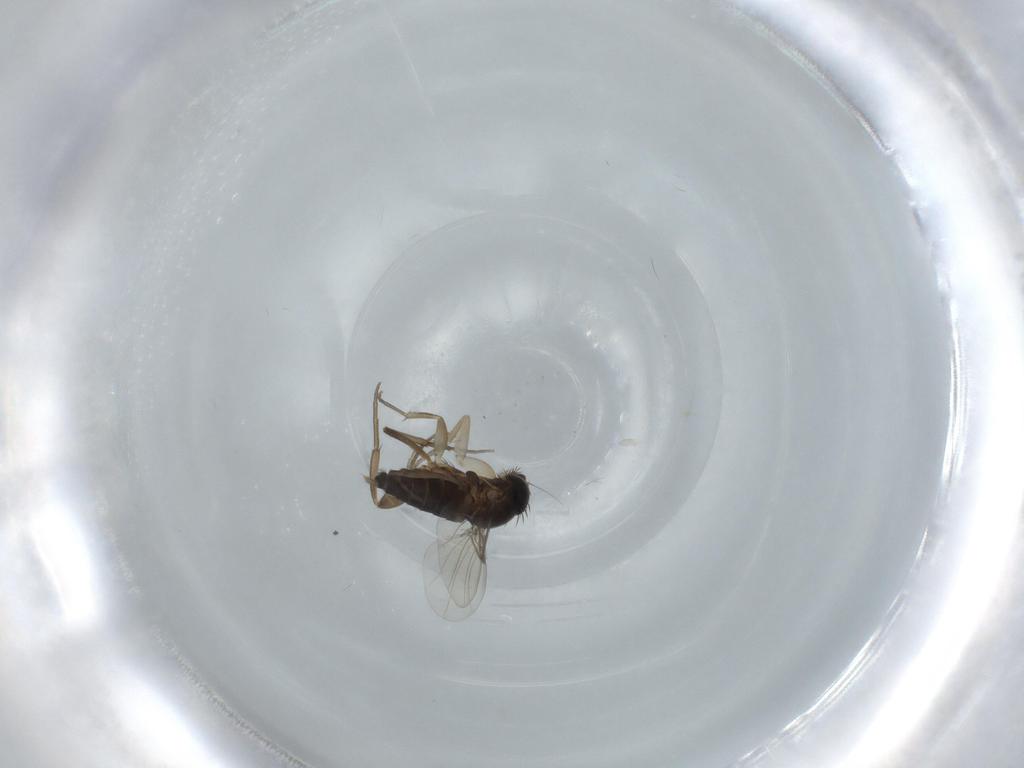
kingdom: Animalia
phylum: Arthropoda
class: Insecta
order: Diptera
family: Phoridae
